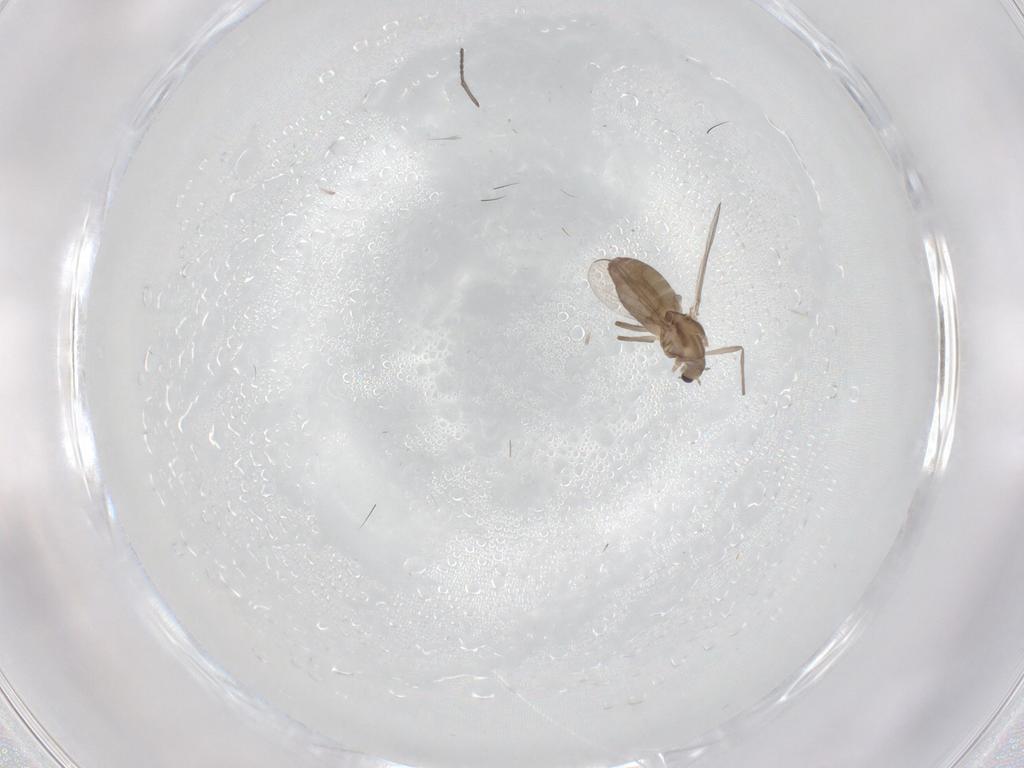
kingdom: Animalia
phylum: Arthropoda
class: Insecta
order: Diptera
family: Chironomidae
